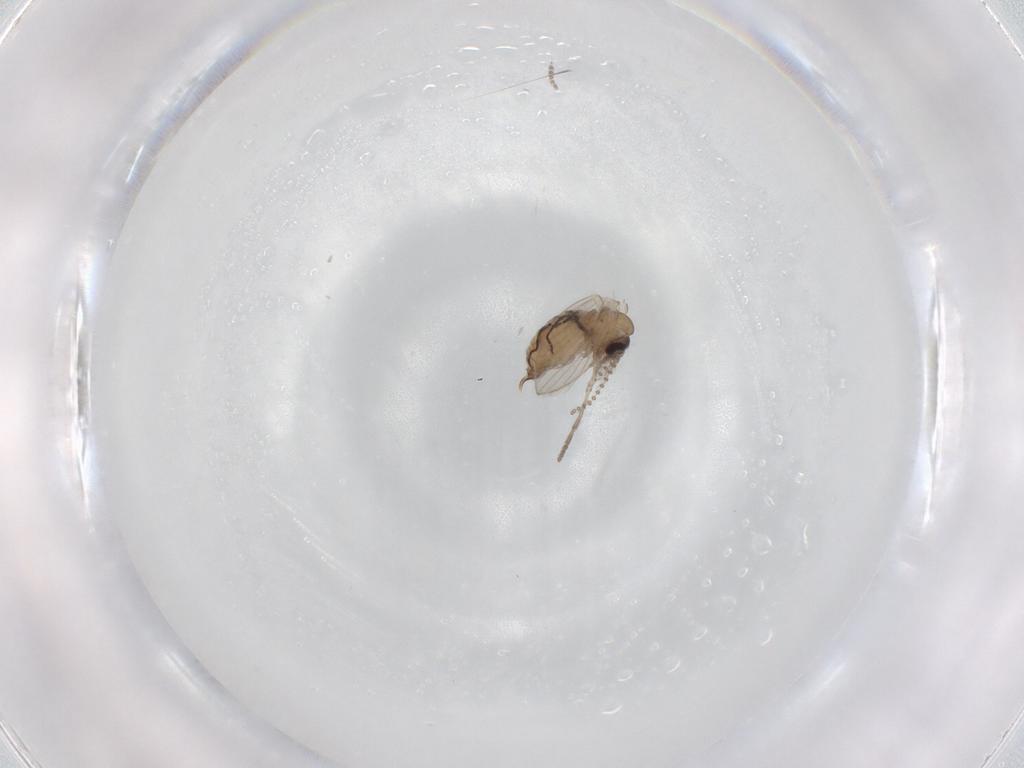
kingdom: Animalia
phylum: Arthropoda
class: Insecta
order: Diptera
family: Psychodidae
